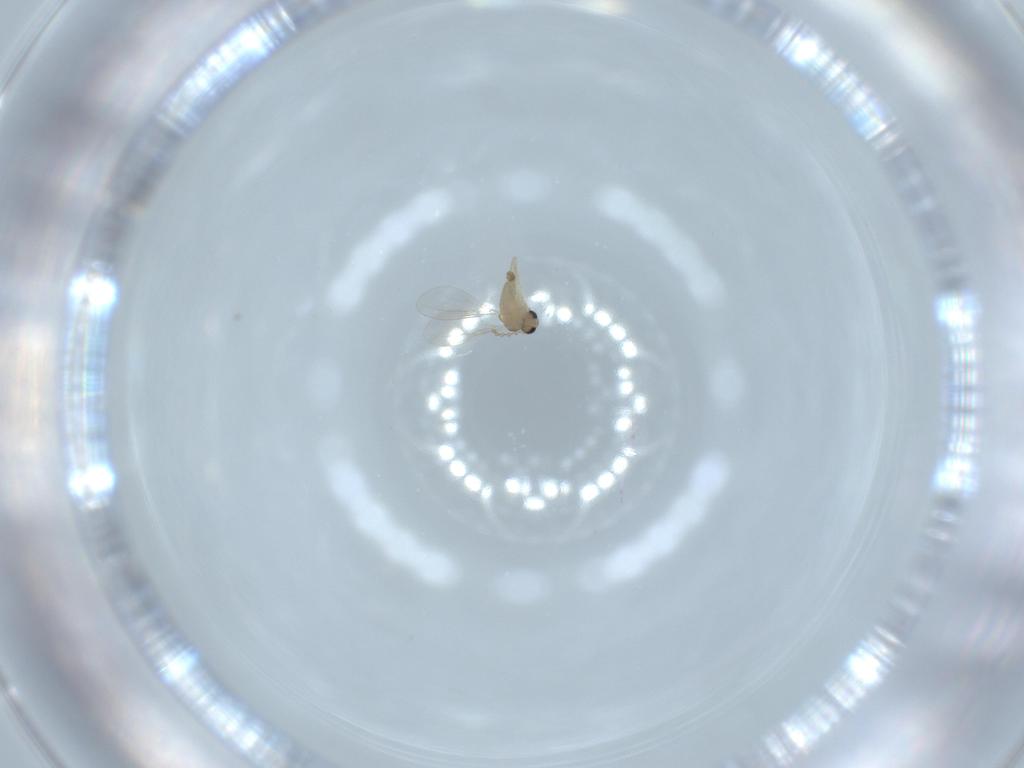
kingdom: Animalia
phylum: Arthropoda
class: Insecta
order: Diptera
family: Cecidomyiidae
